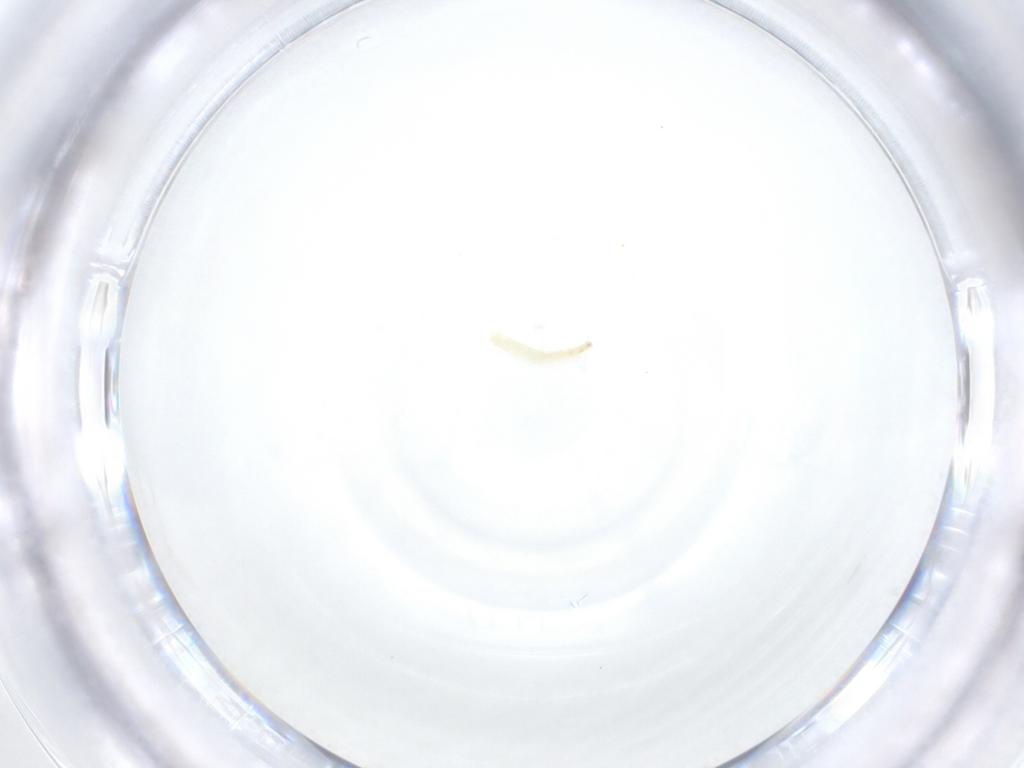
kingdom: Animalia
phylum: Arthropoda
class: Insecta
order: Diptera
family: Sarcophagidae
